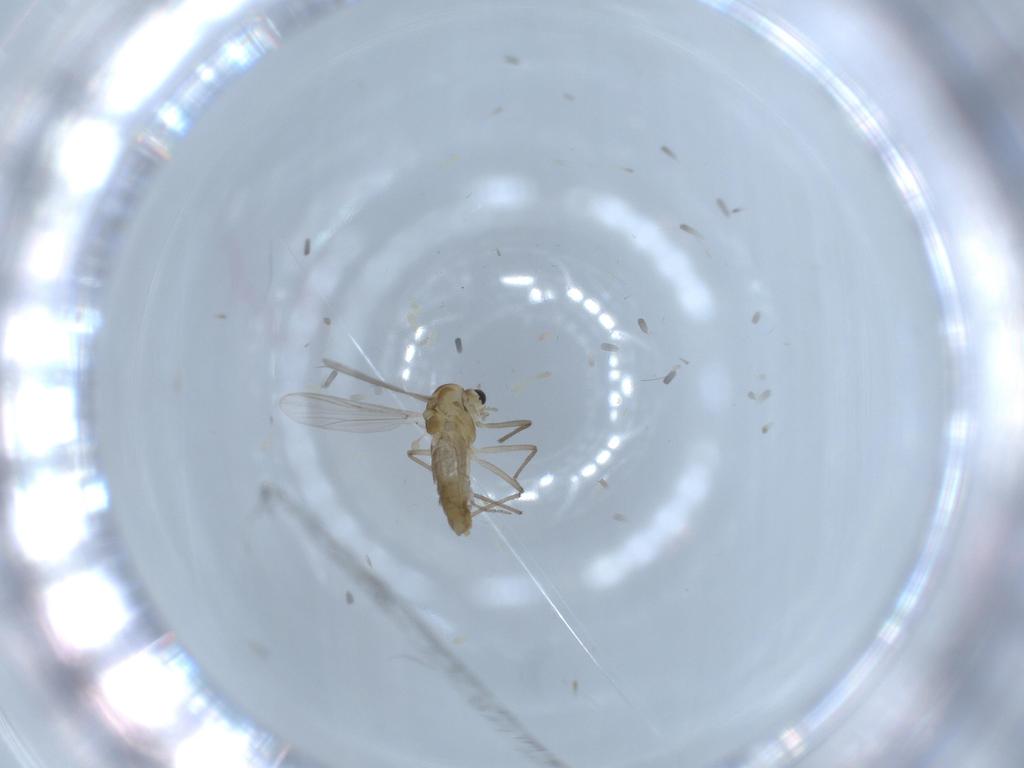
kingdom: Animalia
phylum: Arthropoda
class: Insecta
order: Diptera
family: Chironomidae
